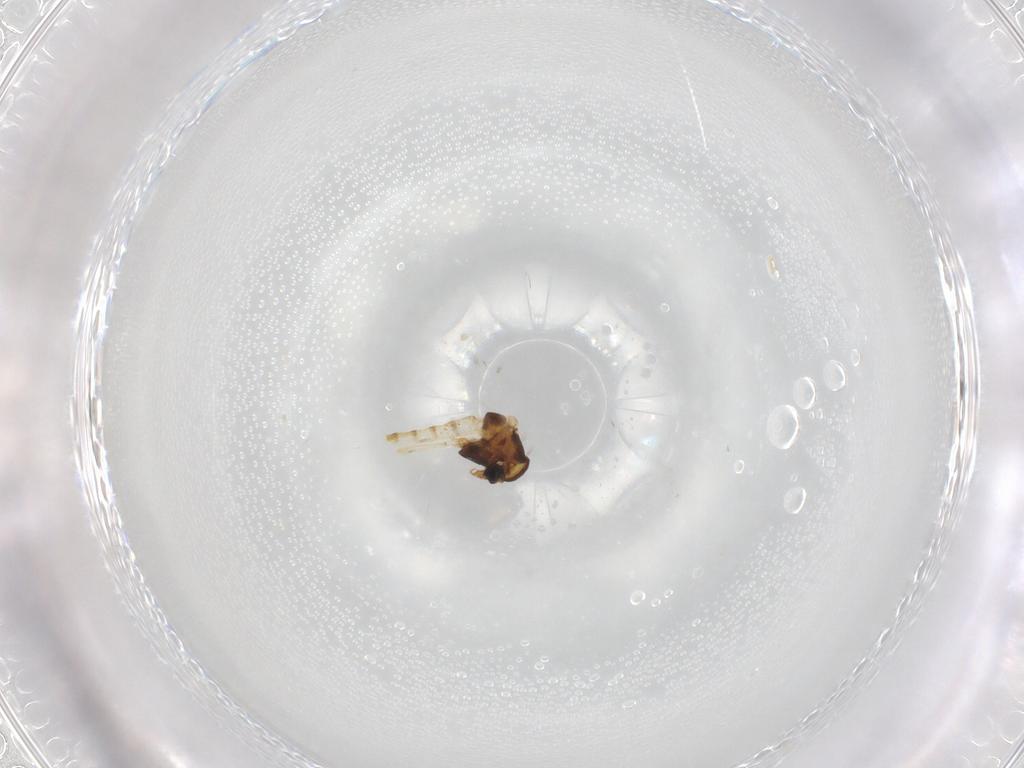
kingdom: Animalia
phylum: Arthropoda
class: Insecta
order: Diptera
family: Chironomidae
